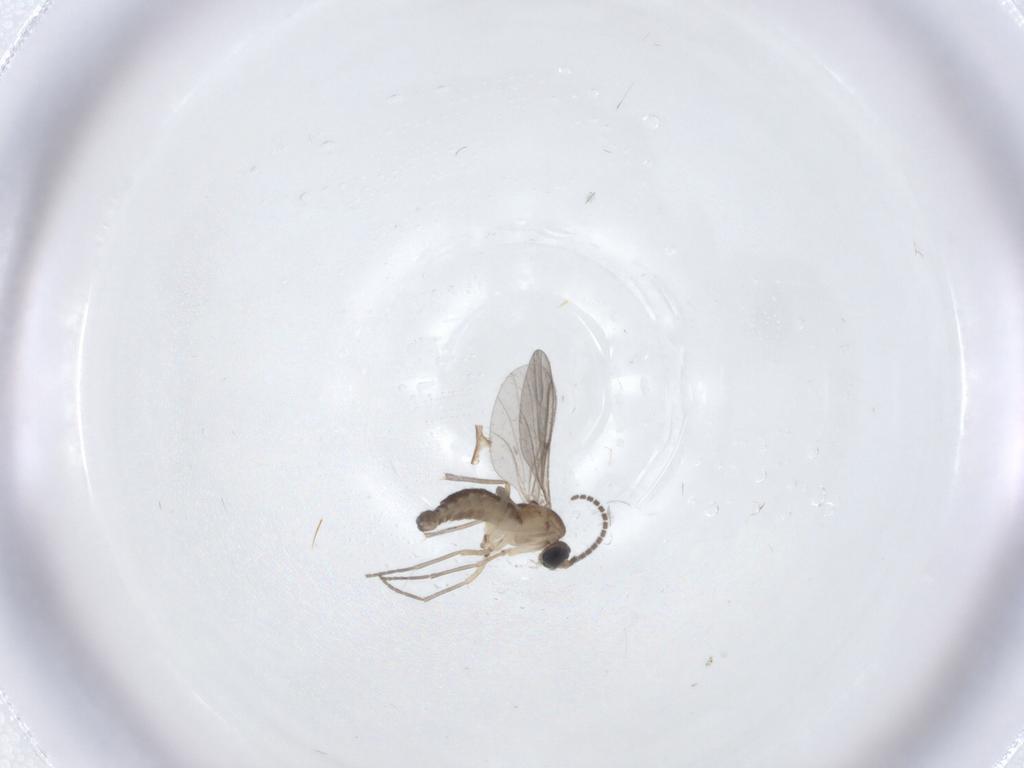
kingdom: Animalia
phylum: Arthropoda
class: Insecta
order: Diptera
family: Sciaridae
